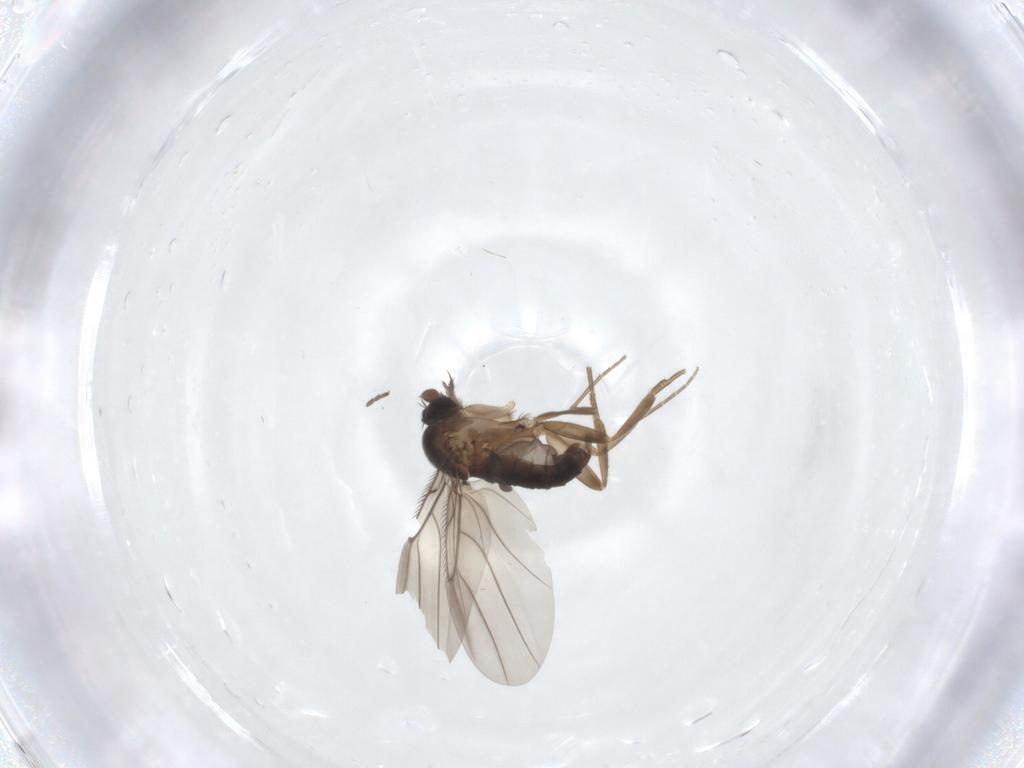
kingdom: Animalia
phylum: Arthropoda
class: Insecta
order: Diptera
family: Phoridae
